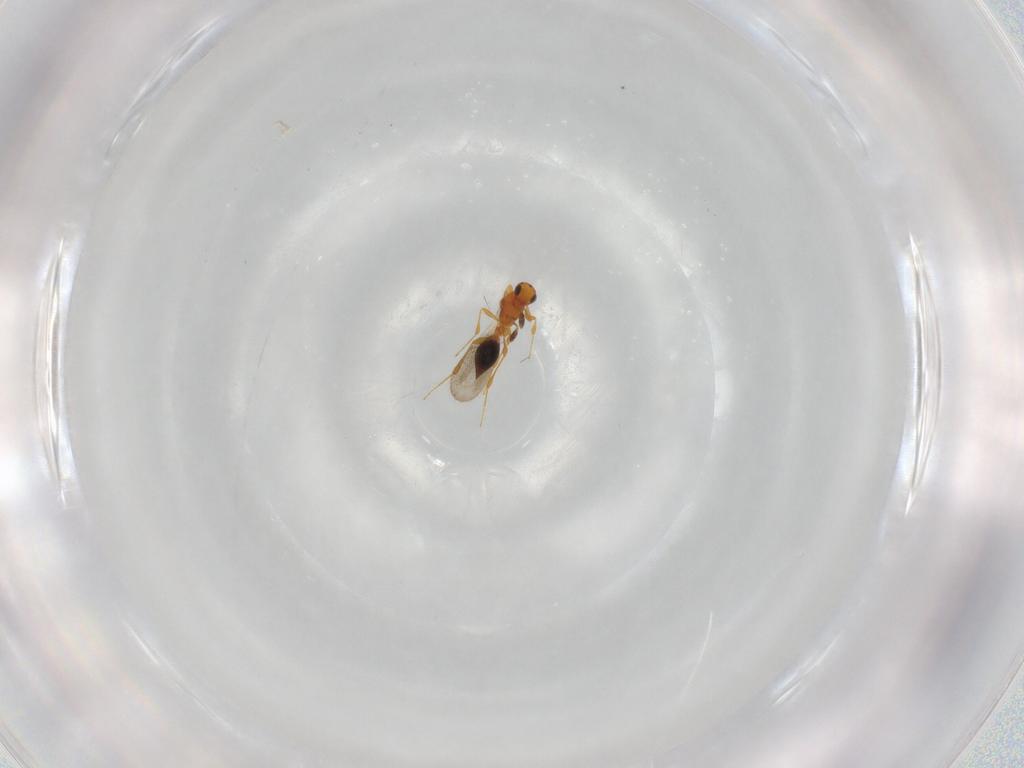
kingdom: Animalia
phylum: Arthropoda
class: Insecta
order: Hymenoptera
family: Platygastridae
